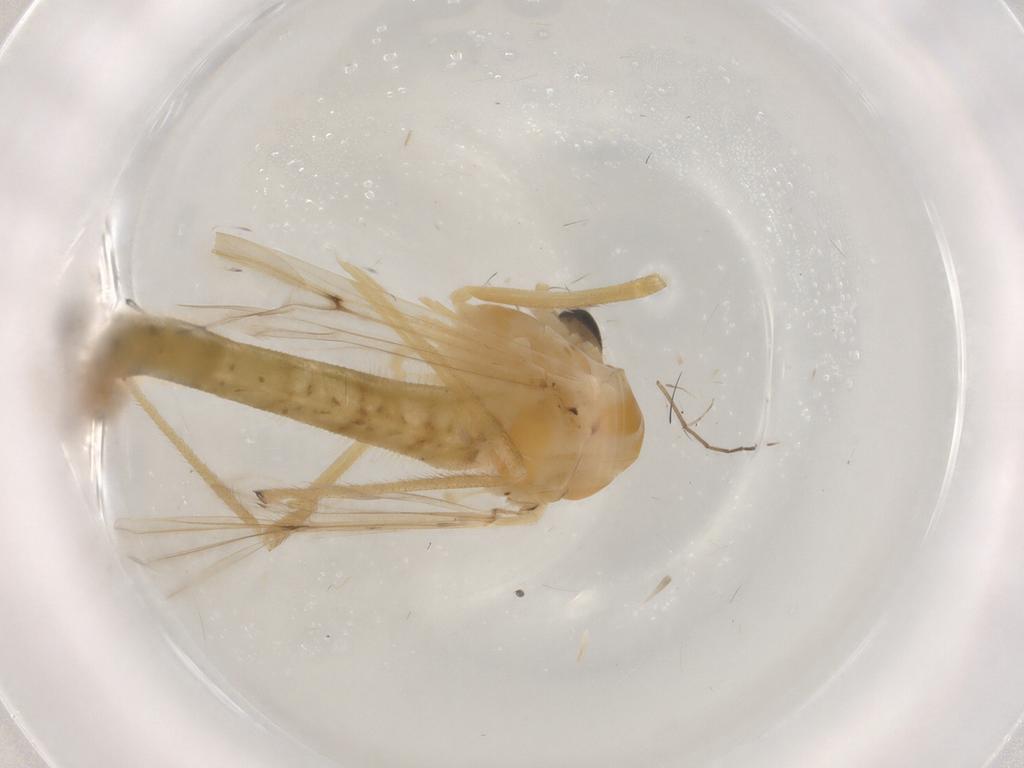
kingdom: Animalia
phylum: Arthropoda
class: Insecta
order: Diptera
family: Chironomidae
